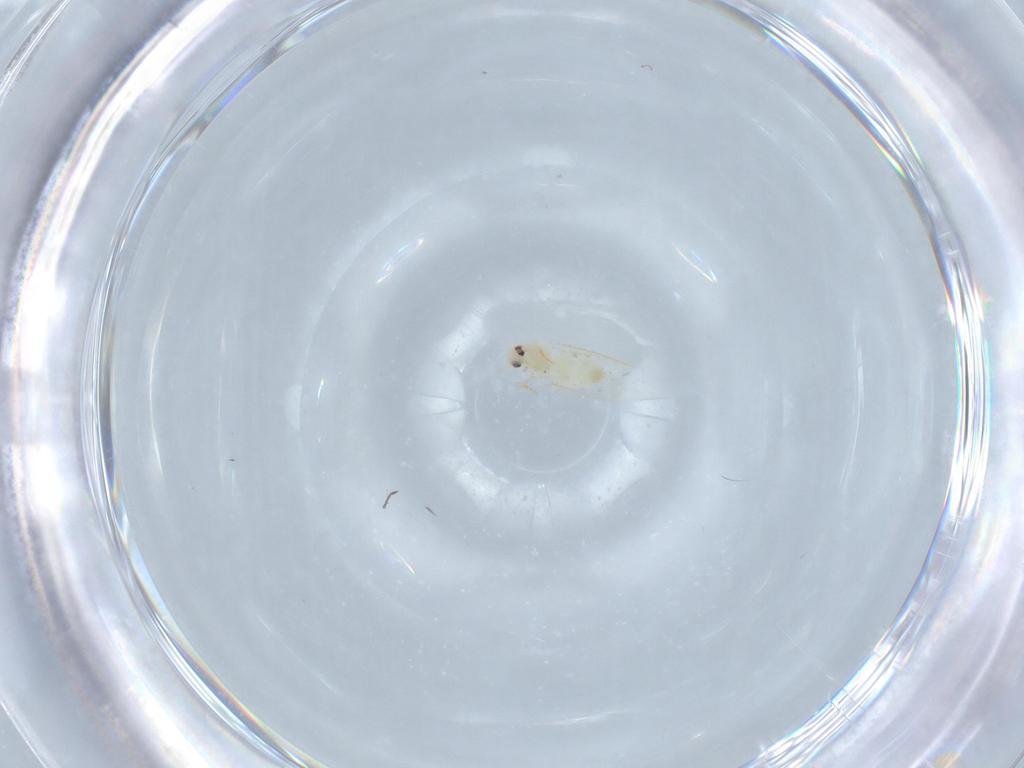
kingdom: Animalia
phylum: Arthropoda
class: Insecta
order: Hemiptera
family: Aleyrodidae
